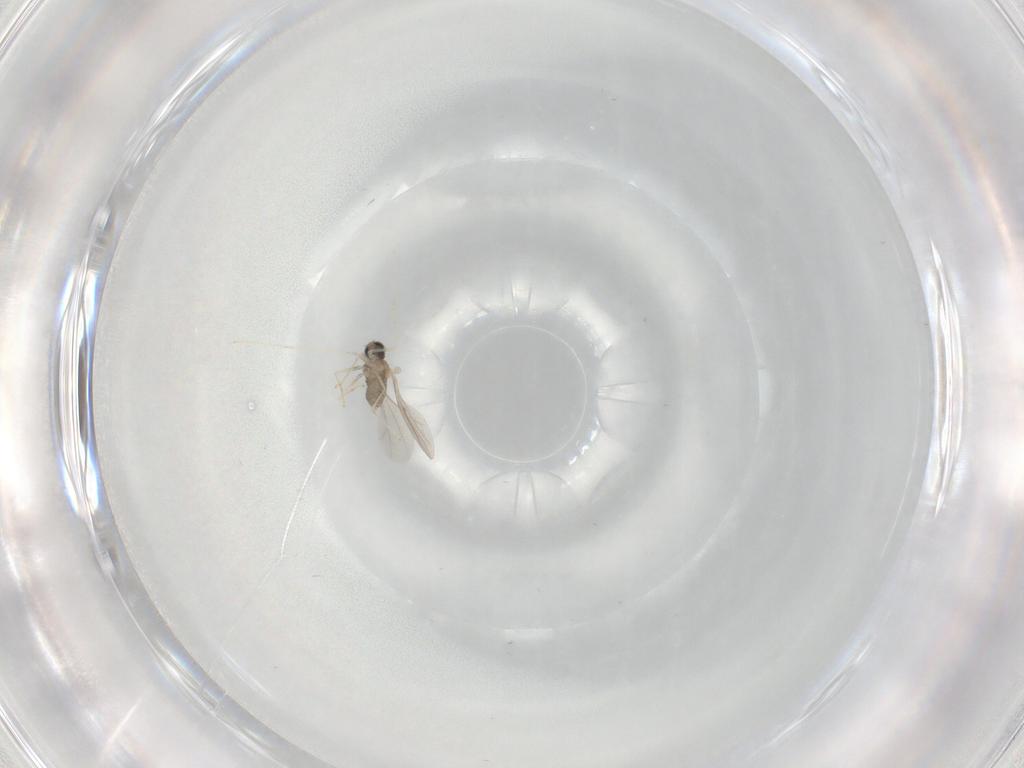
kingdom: Animalia
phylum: Arthropoda
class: Insecta
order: Diptera
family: Cecidomyiidae
